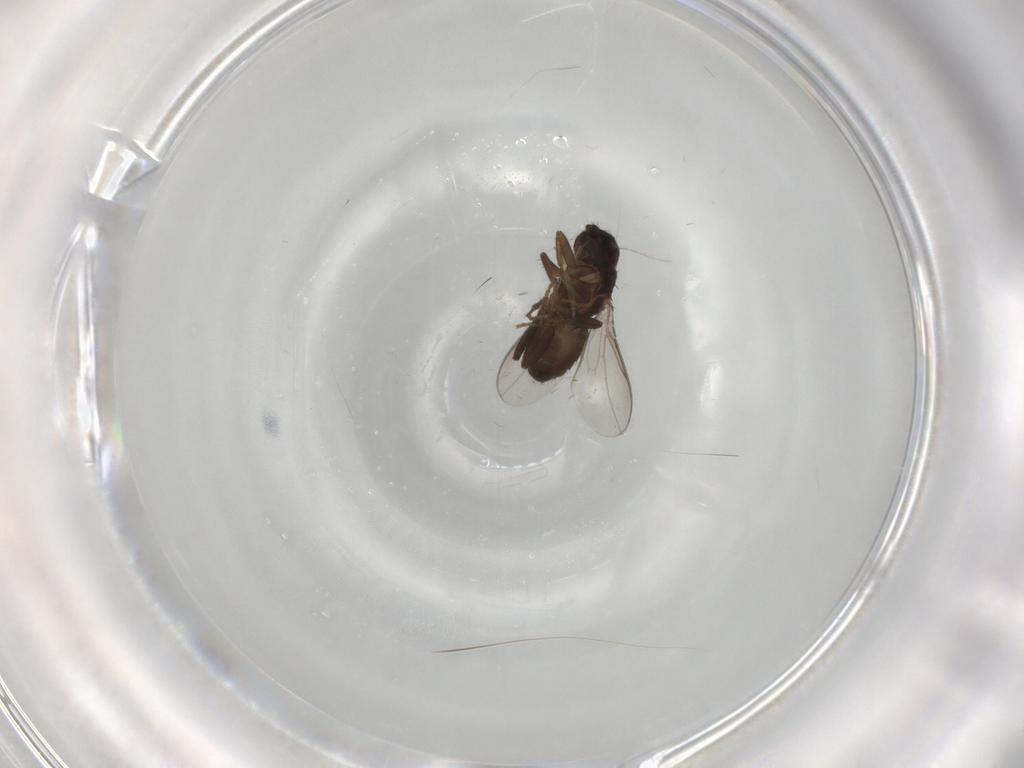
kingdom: Animalia
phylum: Arthropoda
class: Insecta
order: Diptera
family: Sphaeroceridae
